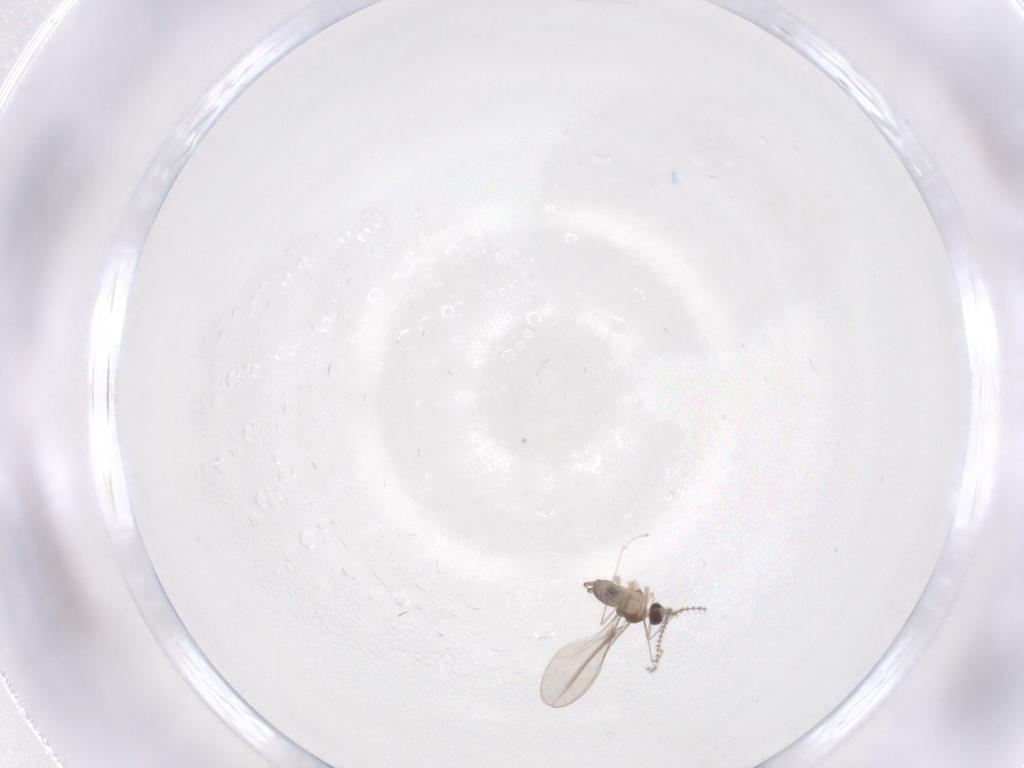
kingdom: Animalia
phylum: Arthropoda
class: Insecta
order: Diptera
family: Cecidomyiidae
